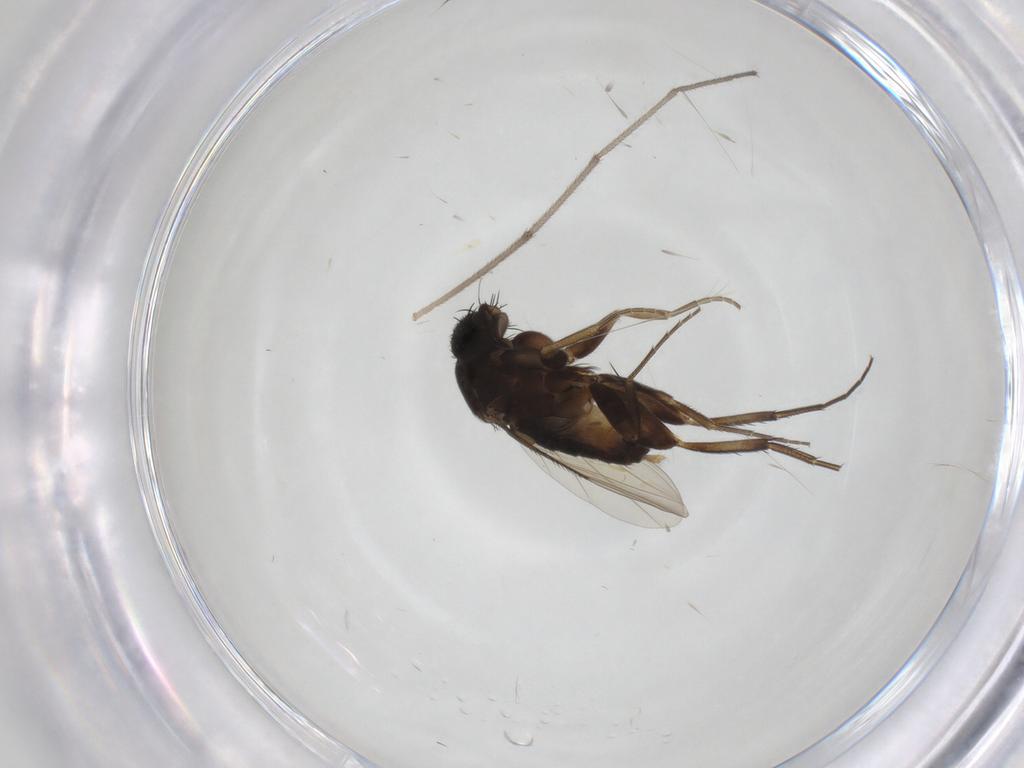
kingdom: Animalia
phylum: Arthropoda
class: Insecta
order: Diptera
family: Phoridae
